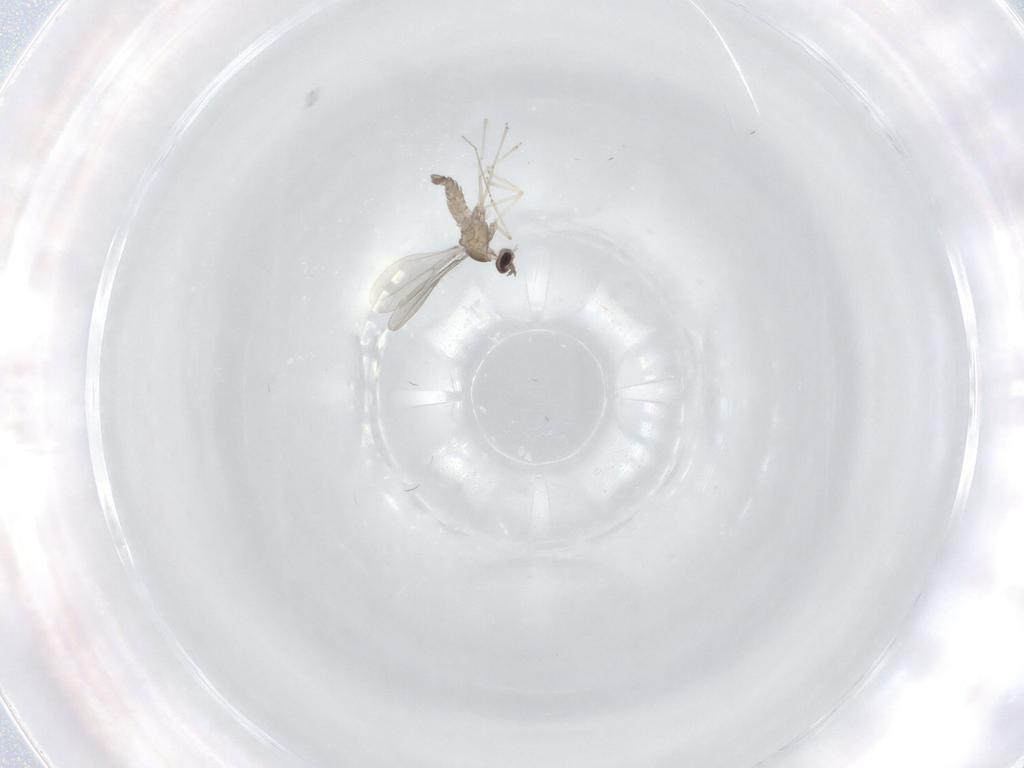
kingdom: Animalia
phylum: Arthropoda
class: Insecta
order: Diptera
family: Cecidomyiidae
